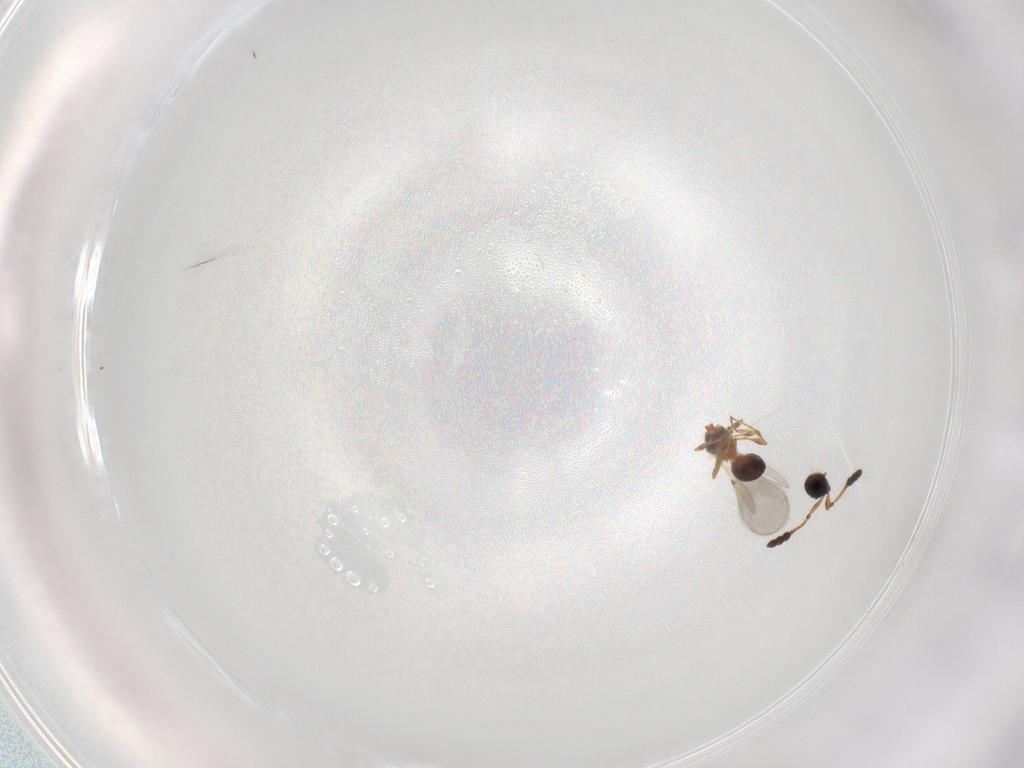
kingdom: Animalia
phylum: Arthropoda
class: Insecta
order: Hymenoptera
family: Diapriidae
